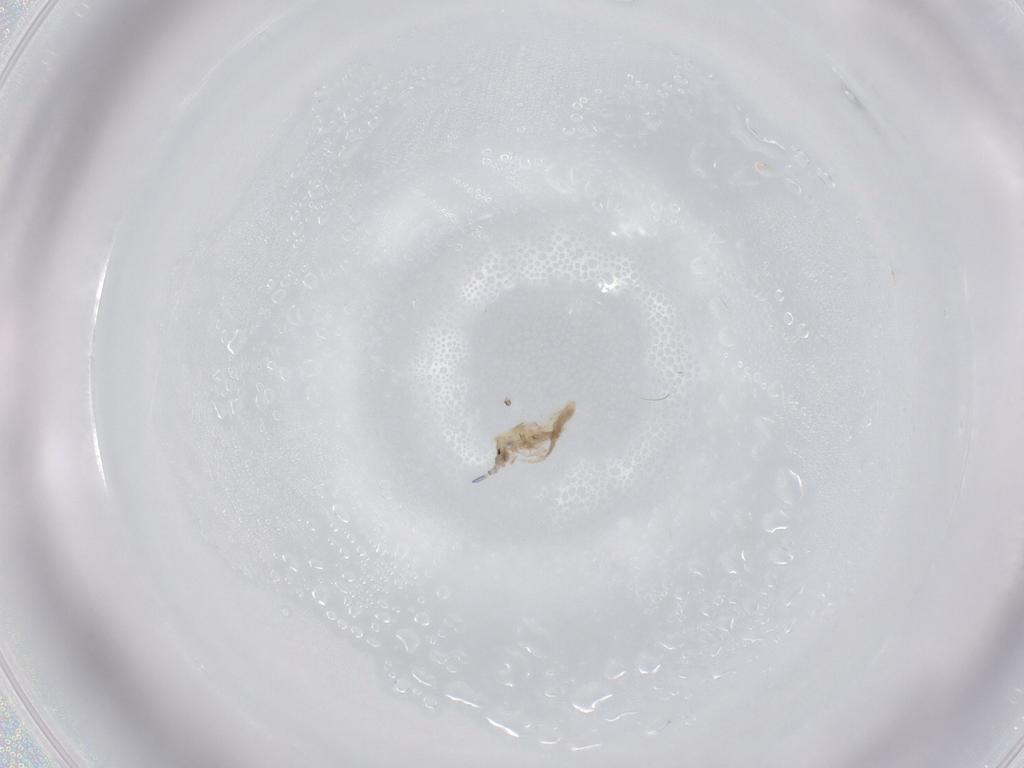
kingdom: Animalia
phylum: Arthropoda
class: Collembola
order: Entomobryomorpha
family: Entomobryidae
